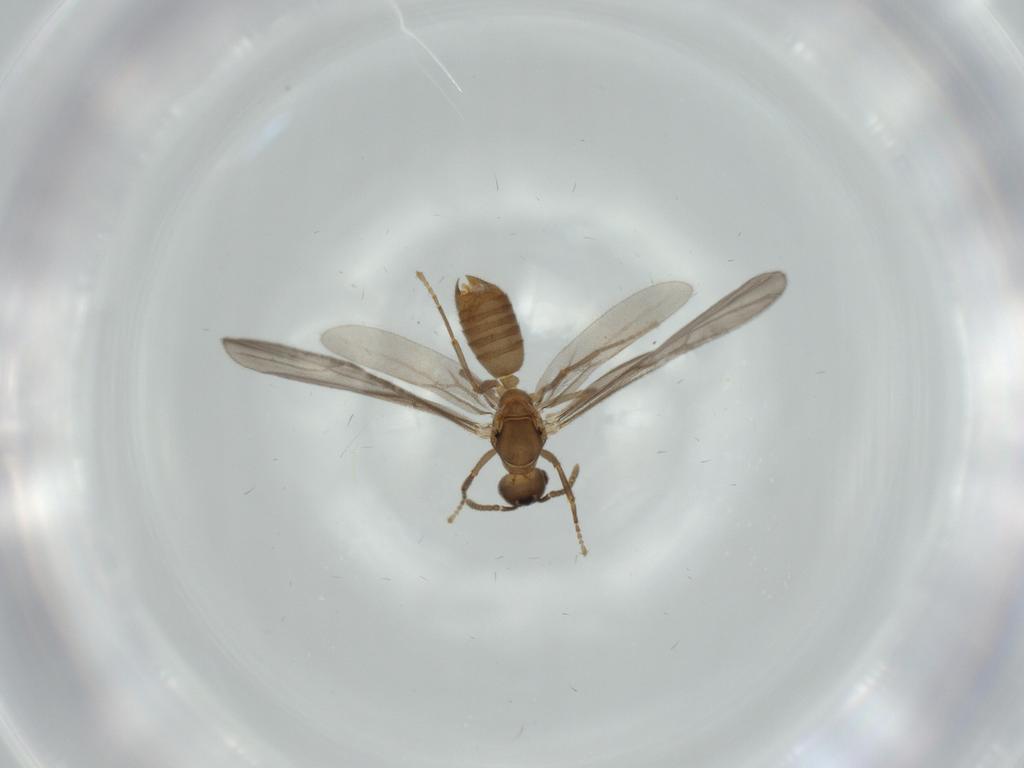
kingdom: Animalia
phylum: Arthropoda
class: Insecta
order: Hymenoptera
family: Formicidae
